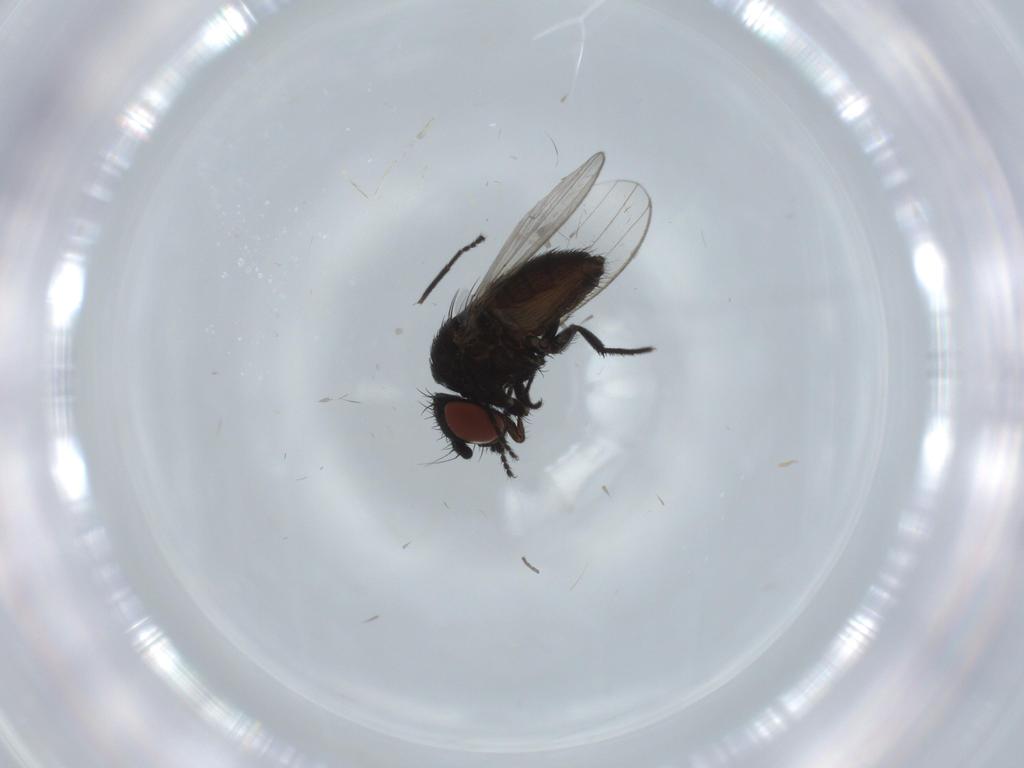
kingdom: Animalia
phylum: Arthropoda
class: Insecta
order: Diptera
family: Milichiidae
